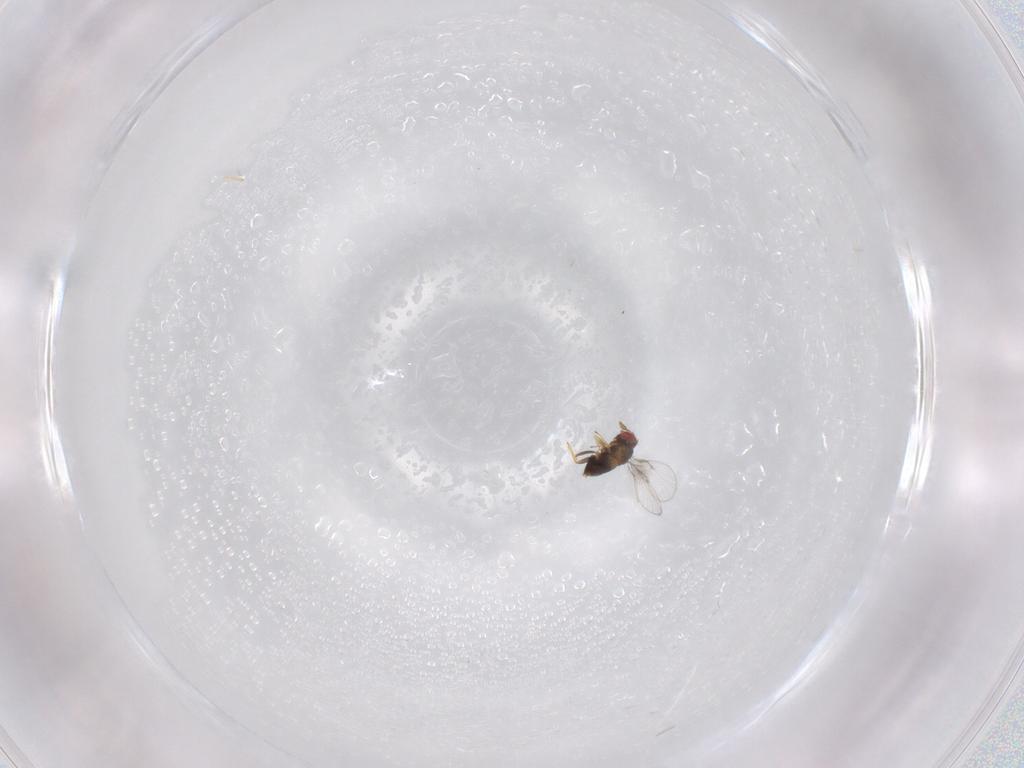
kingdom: Animalia
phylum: Arthropoda
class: Insecta
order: Hymenoptera
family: Trichogrammatidae
